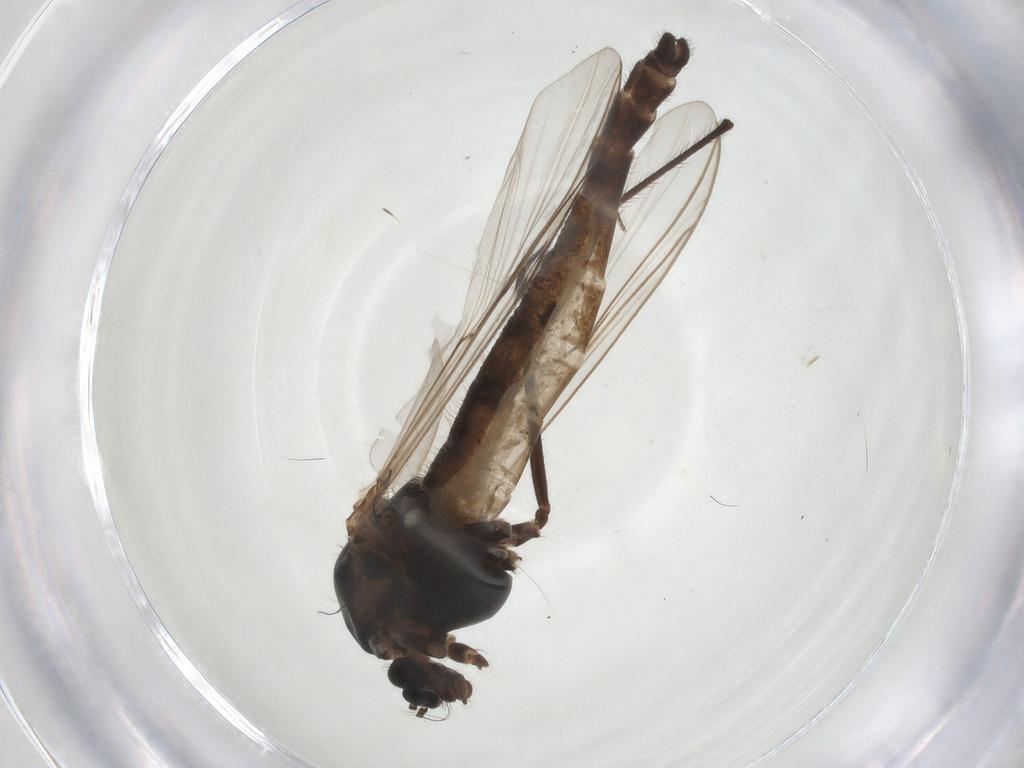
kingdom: Animalia
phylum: Arthropoda
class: Insecta
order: Diptera
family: Chironomidae
